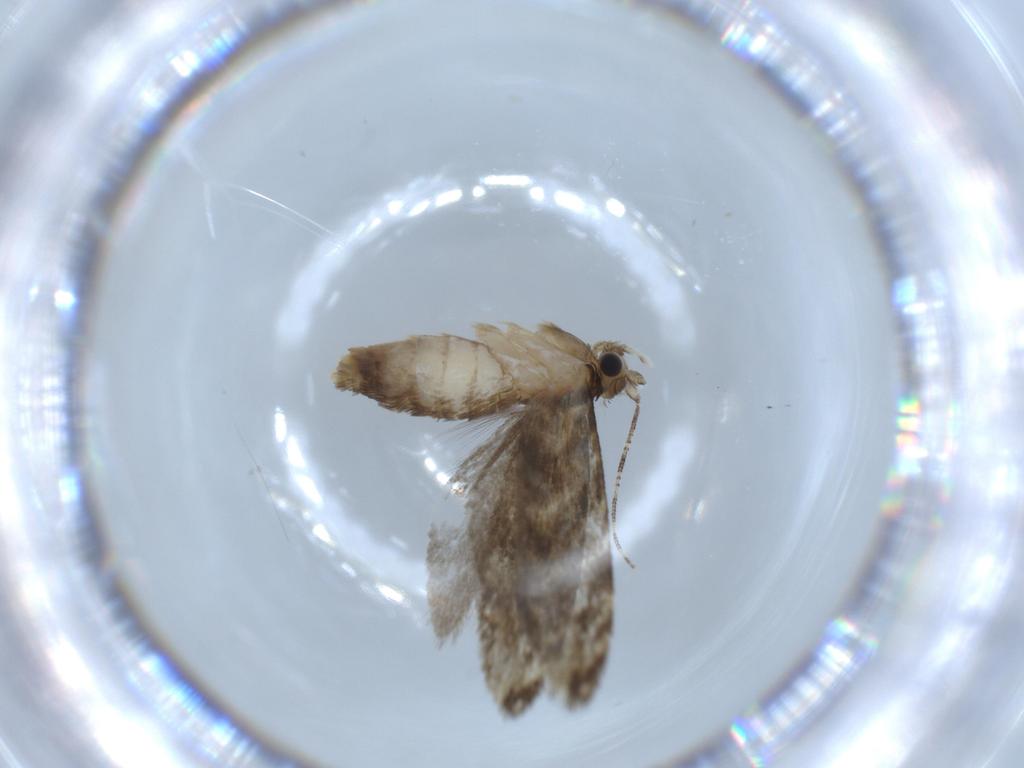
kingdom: Animalia
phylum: Arthropoda
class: Insecta
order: Lepidoptera
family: Tineidae
